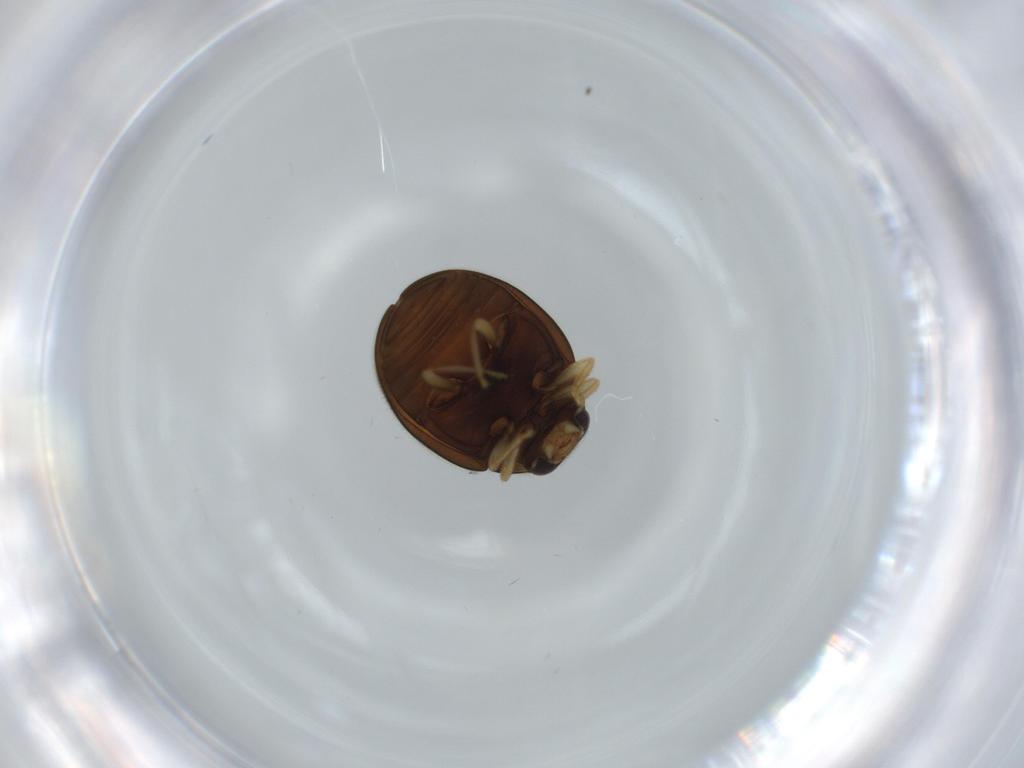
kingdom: Animalia
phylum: Arthropoda
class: Insecta
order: Coleoptera
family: Coccinellidae
